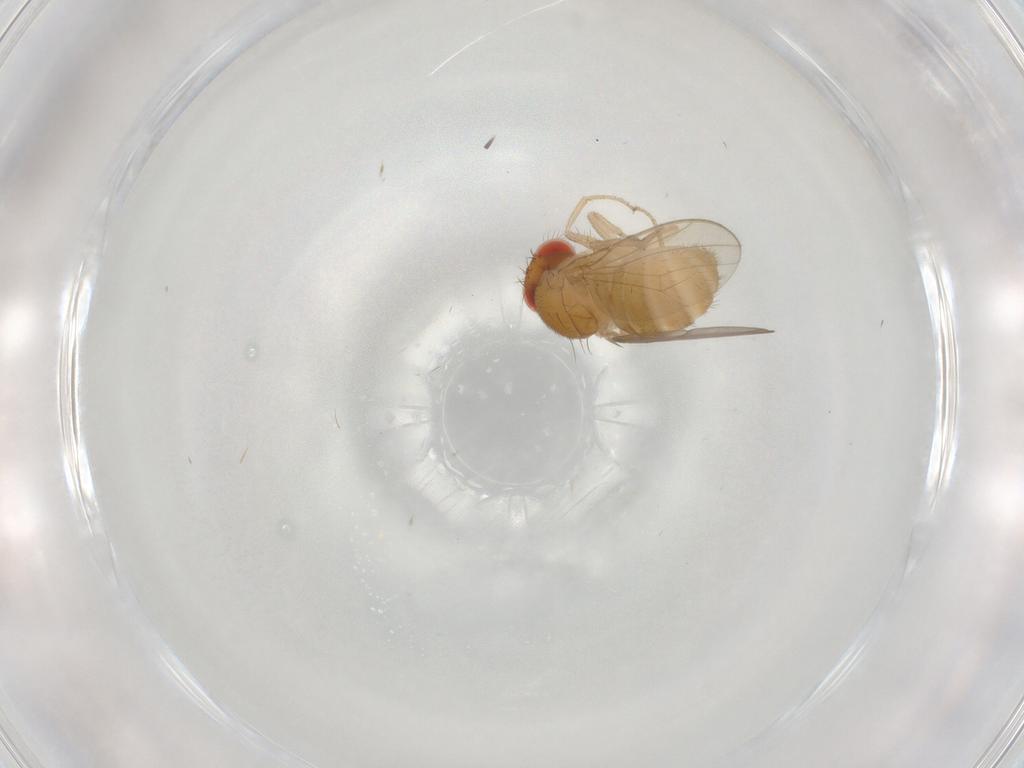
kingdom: Animalia
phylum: Arthropoda
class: Insecta
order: Diptera
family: Drosophilidae
